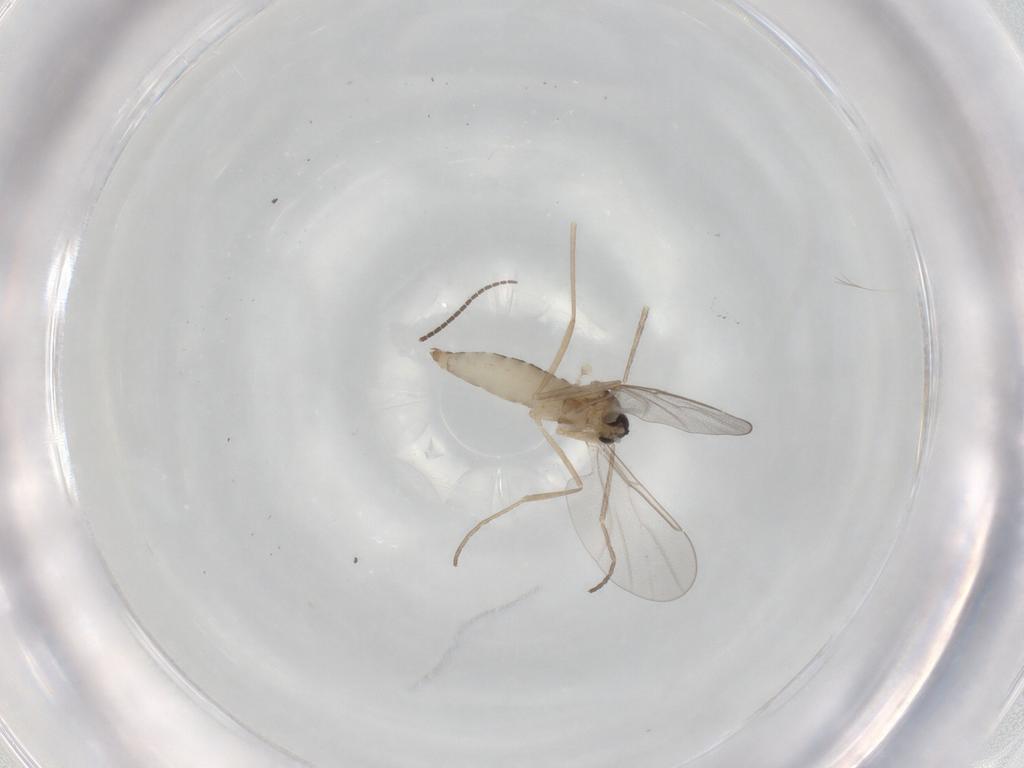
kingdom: Animalia
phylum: Arthropoda
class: Insecta
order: Diptera
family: Cecidomyiidae
